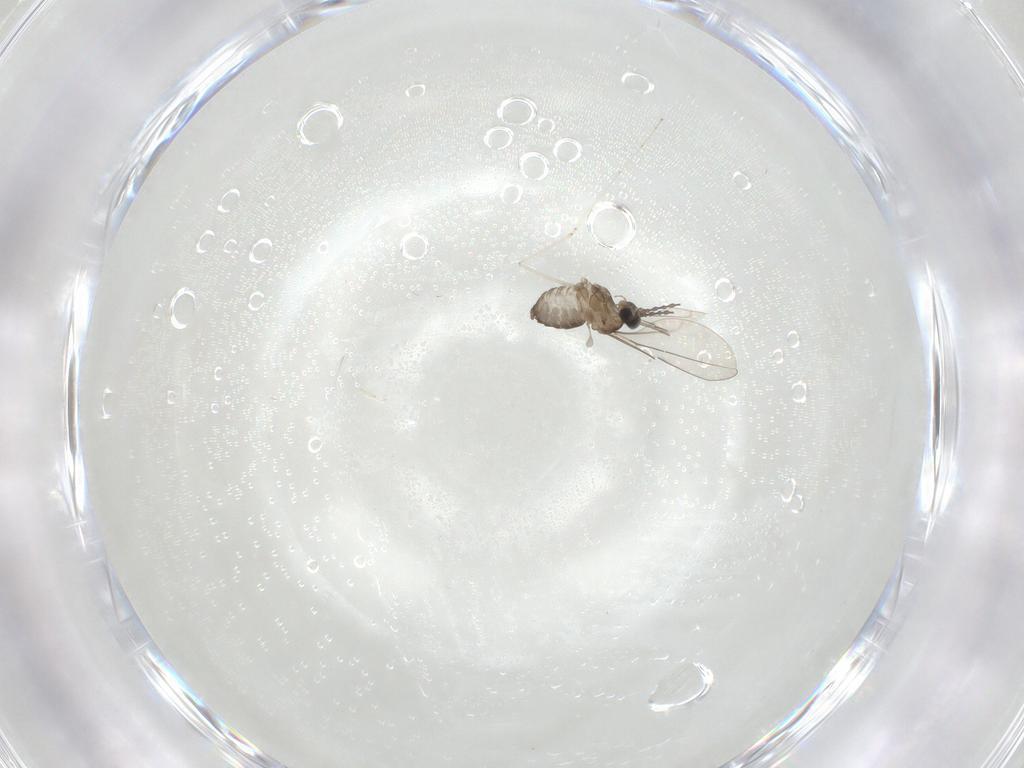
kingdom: Animalia
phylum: Arthropoda
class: Insecta
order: Diptera
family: Cecidomyiidae
